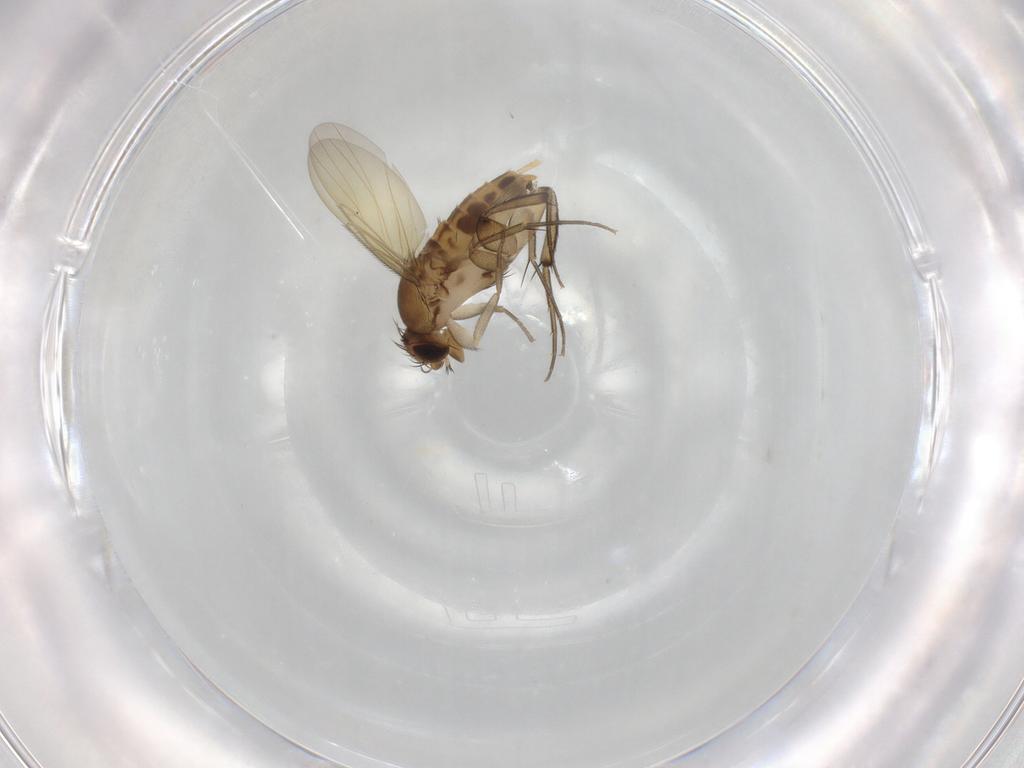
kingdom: Animalia
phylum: Arthropoda
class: Insecta
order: Diptera
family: Phoridae
